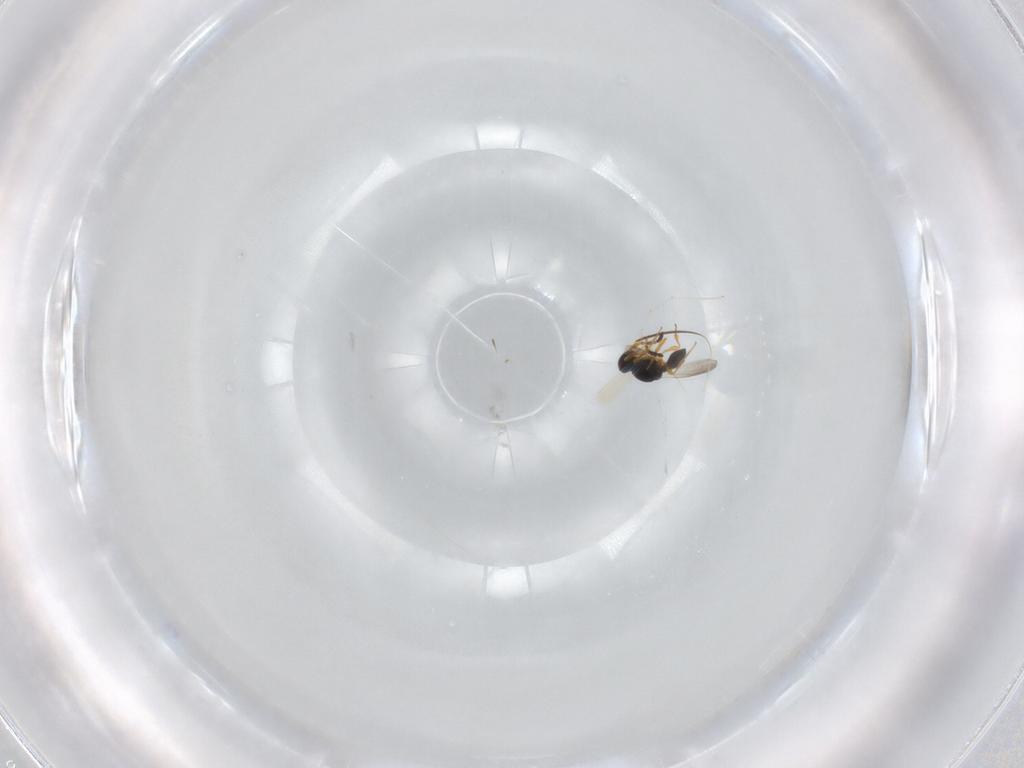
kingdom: Animalia
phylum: Arthropoda
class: Insecta
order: Hymenoptera
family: Platygastridae
